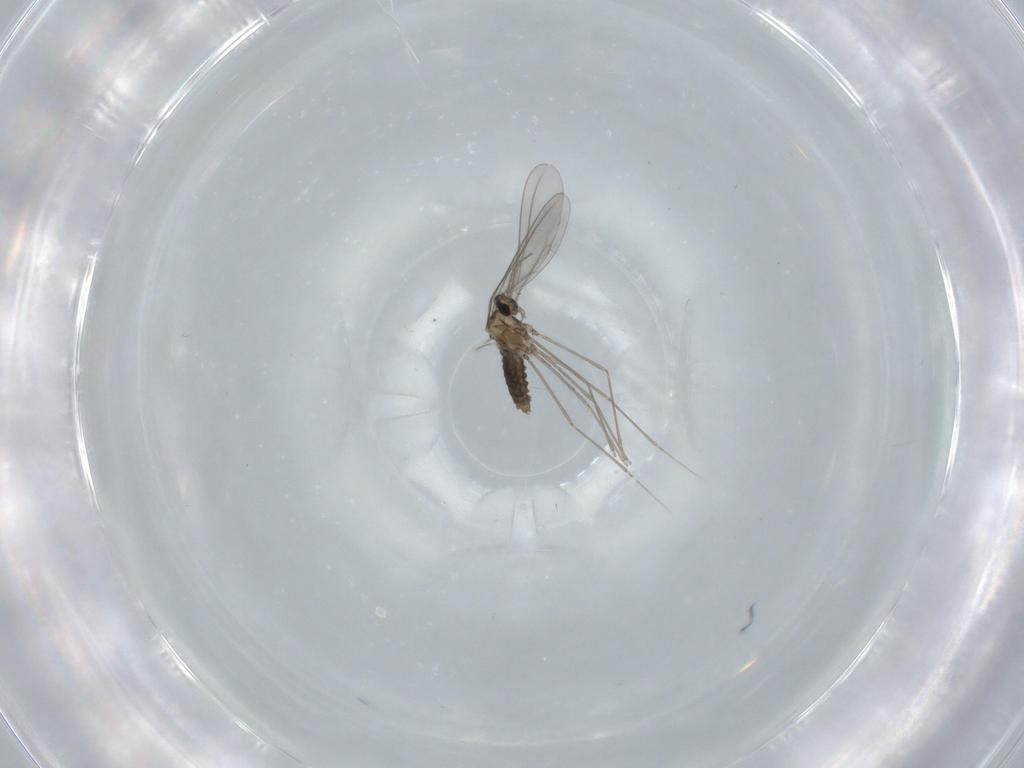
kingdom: Animalia
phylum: Arthropoda
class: Insecta
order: Diptera
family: Cecidomyiidae
